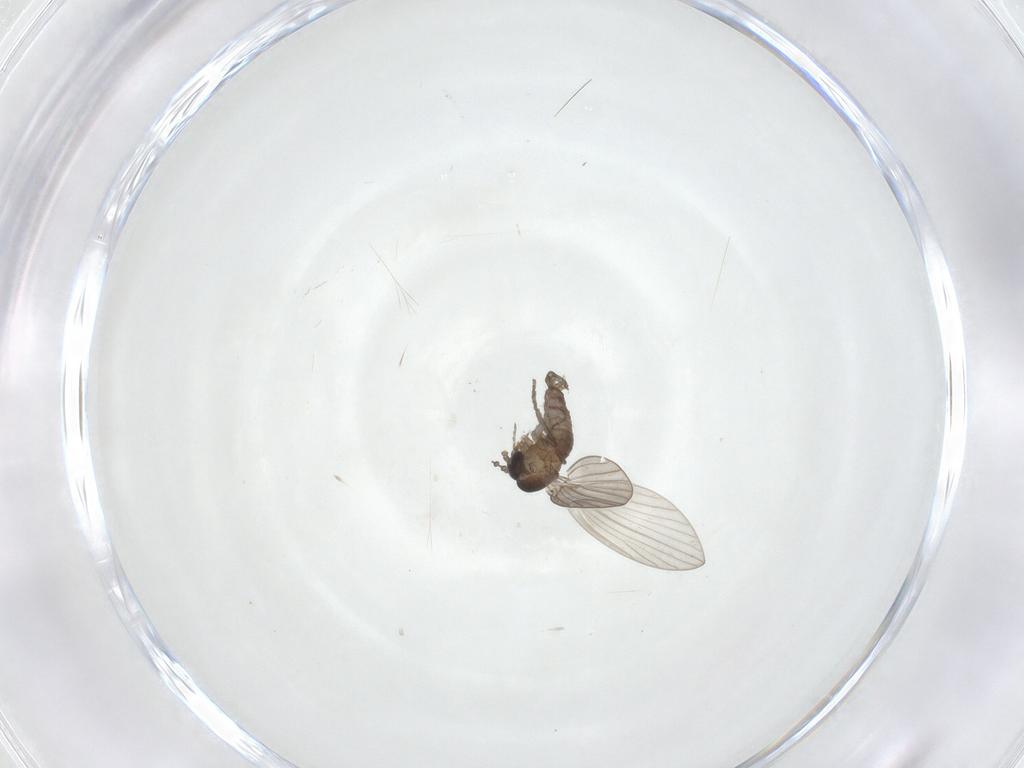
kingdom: Animalia
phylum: Arthropoda
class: Insecta
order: Diptera
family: Psychodidae
